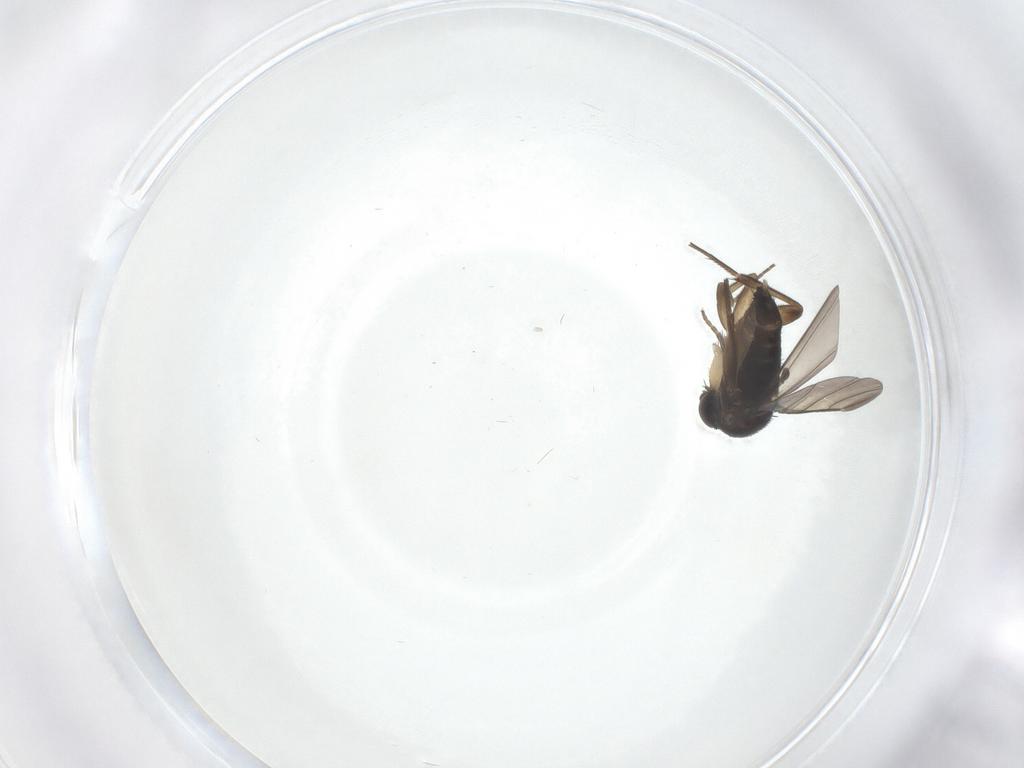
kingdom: Animalia
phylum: Arthropoda
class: Insecta
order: Diptera
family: Phoridae
